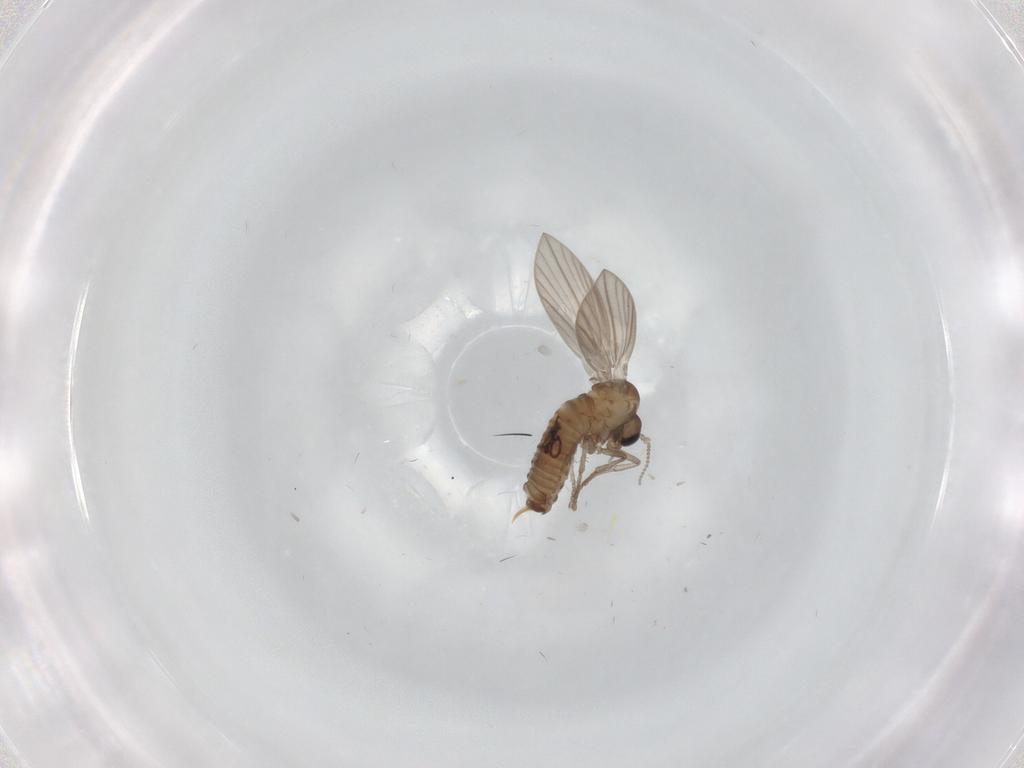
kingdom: Animalia
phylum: Arthropoda
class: Insecta
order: Diptera
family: Psychodidae
